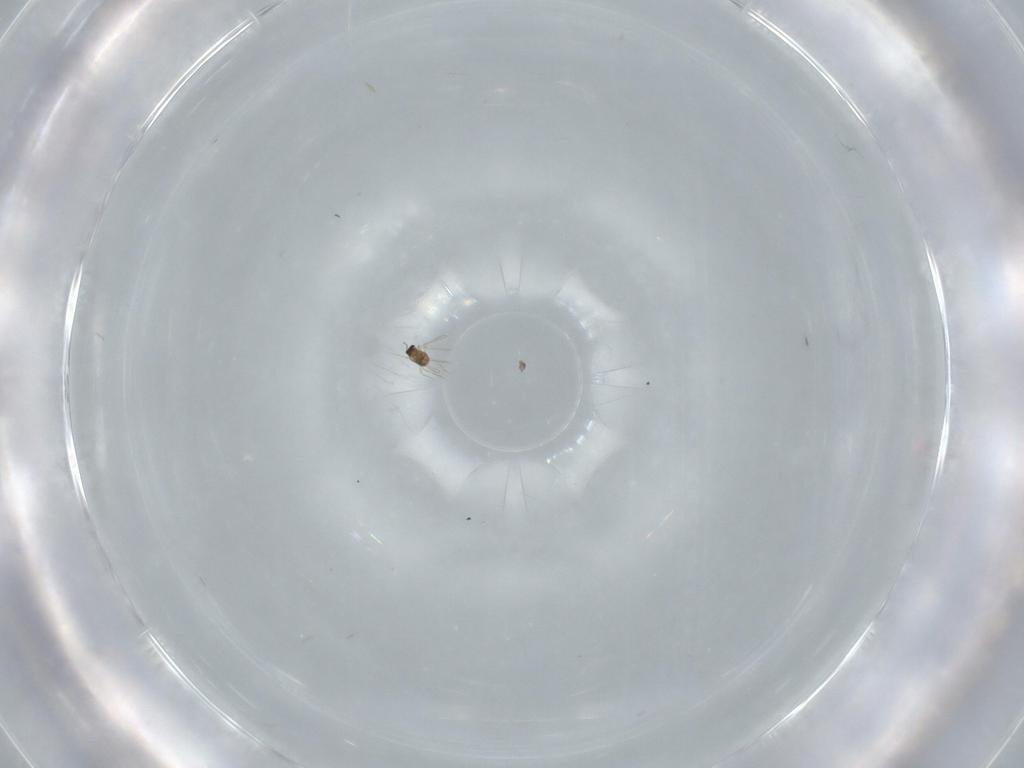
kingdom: Animalia
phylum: Arthropoda
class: Insecta
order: Hymenoptera
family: Mymaridae
